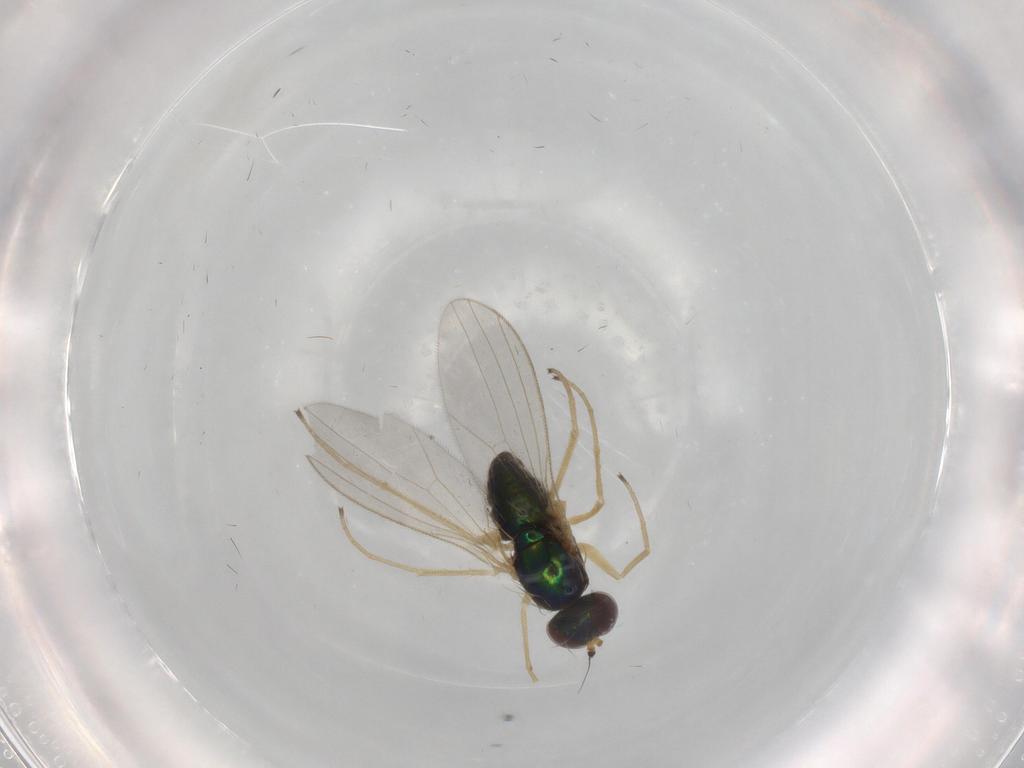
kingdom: Animalia
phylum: Arthropoda
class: Insecta
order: Diptera
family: Dolichopodidae
